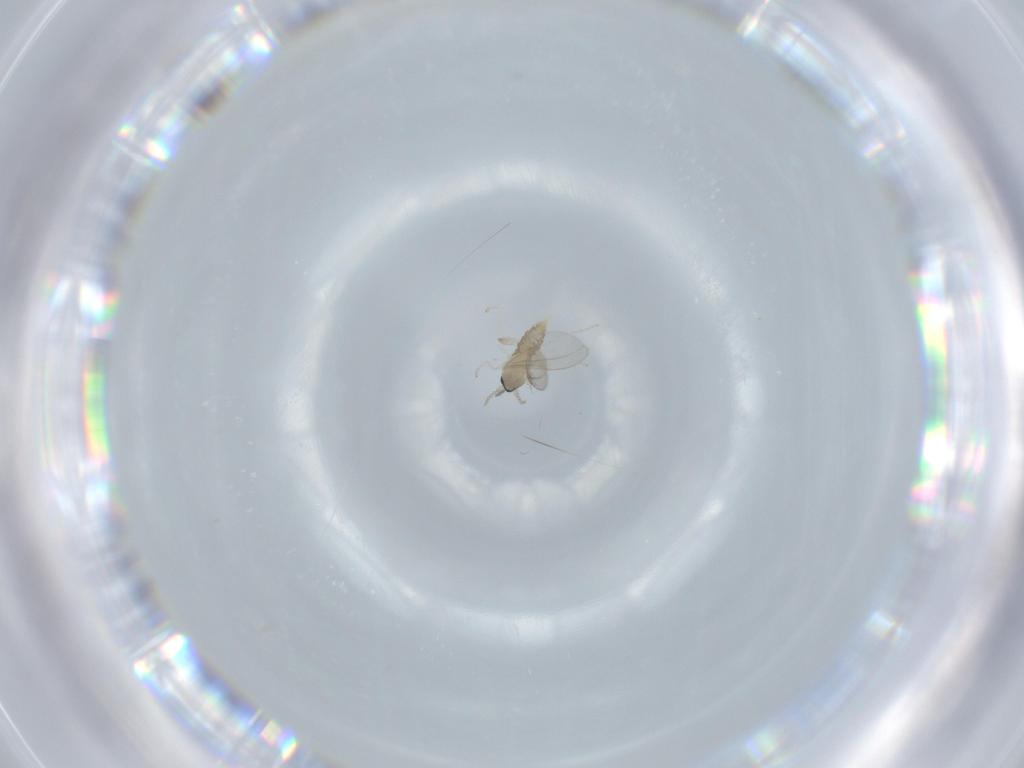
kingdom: Animalia
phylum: Arthropoda
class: Insecta
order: Diptera
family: Cecidomyiidae
